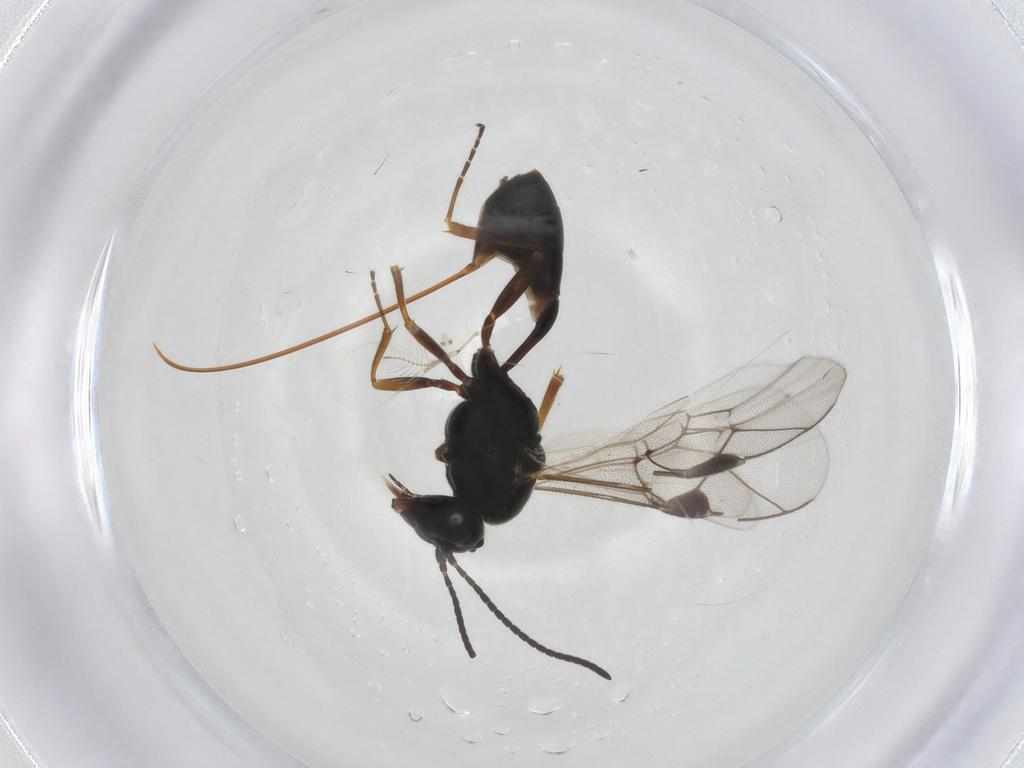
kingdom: Animalia
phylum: Arthropoda
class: Insecta
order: Hymenoptera
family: Ichneumonidae
